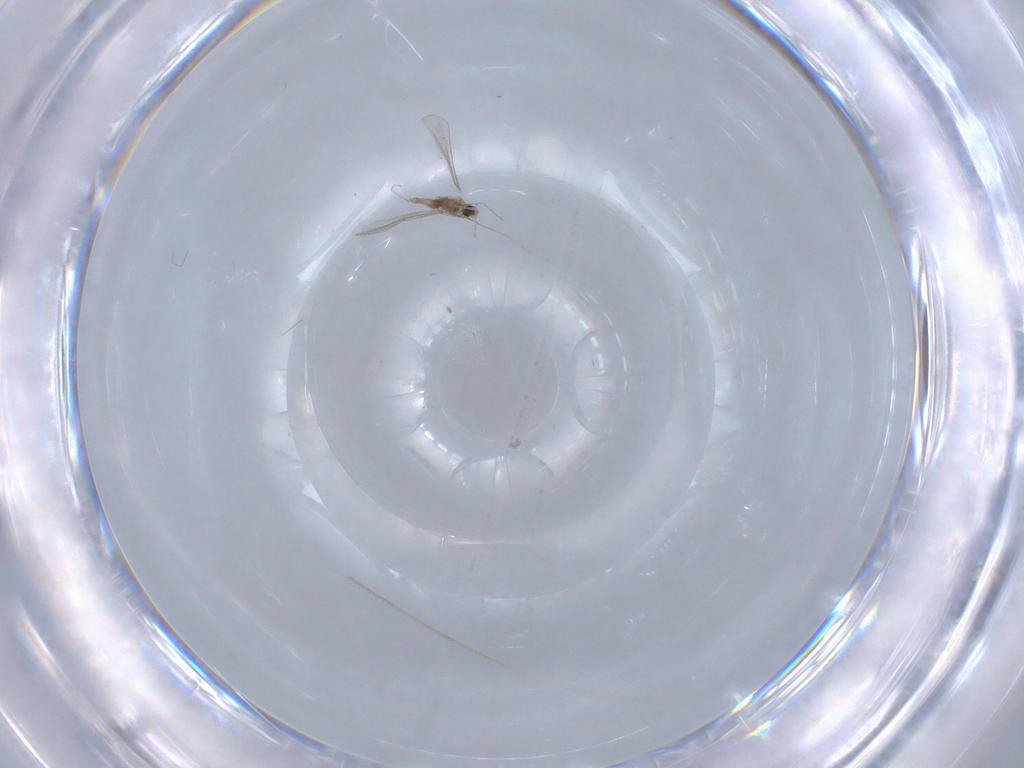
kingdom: Animalia
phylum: Arthropoda
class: Insecta
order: Diptera
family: Cecidomyiidae
